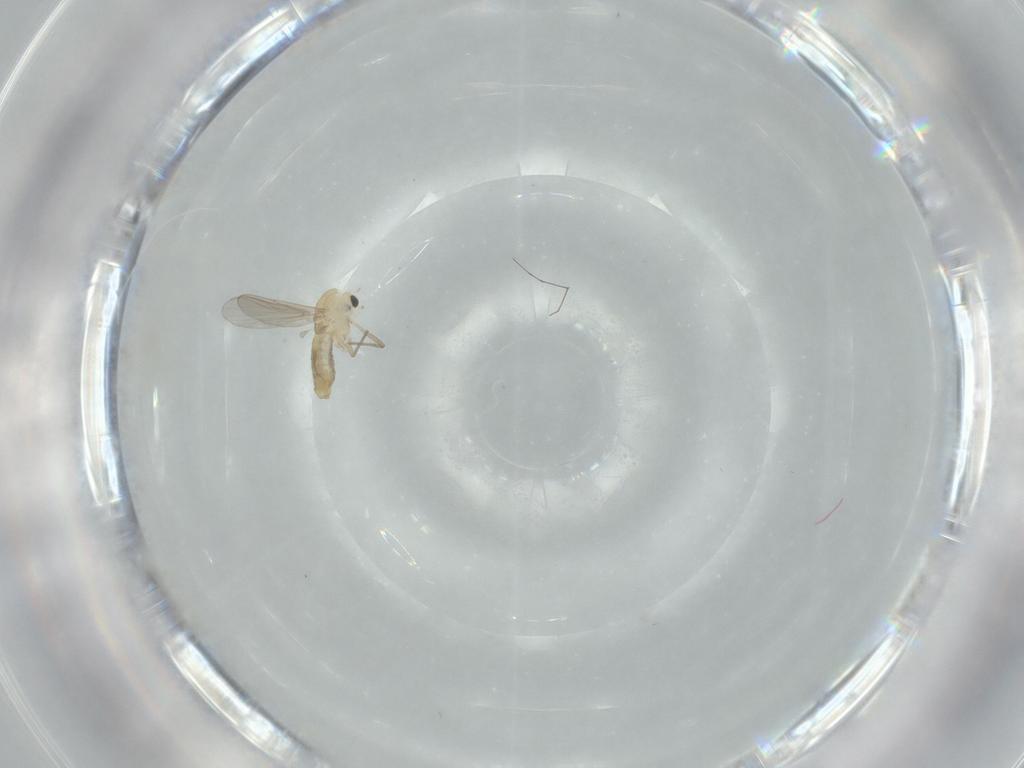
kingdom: Animalia
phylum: Arthropoda
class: Insecta
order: Diptera
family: Chironomidae
